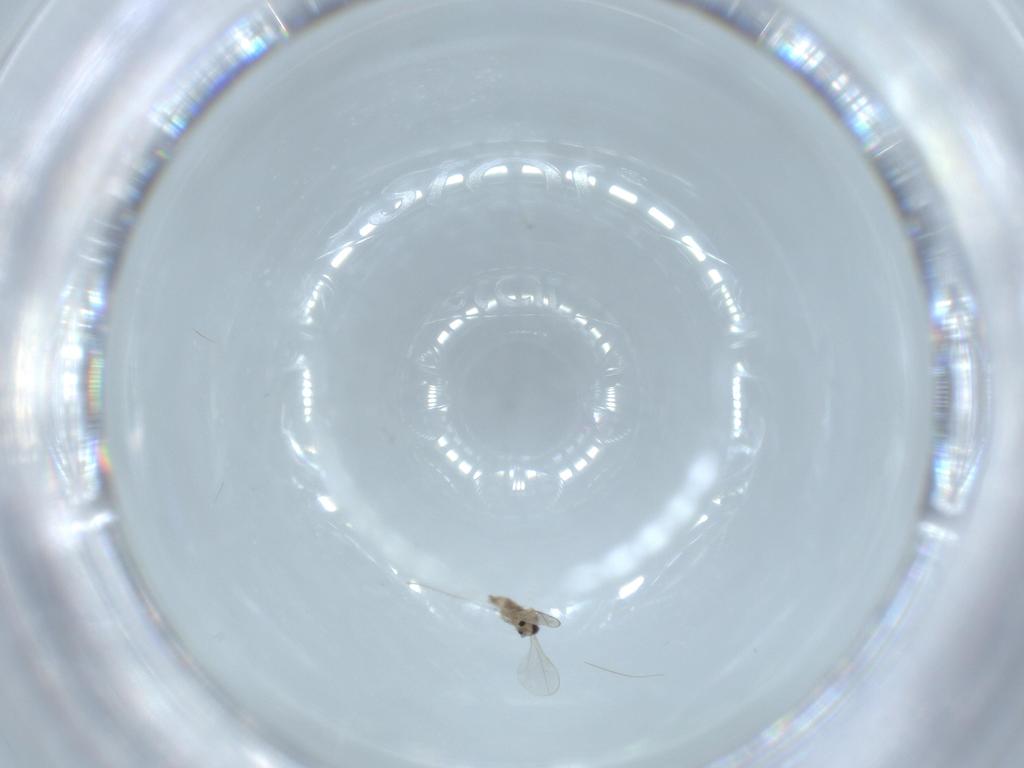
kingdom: Animalia
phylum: Arthropoda
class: Insecta
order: Diptera
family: Cecidomyiidae
